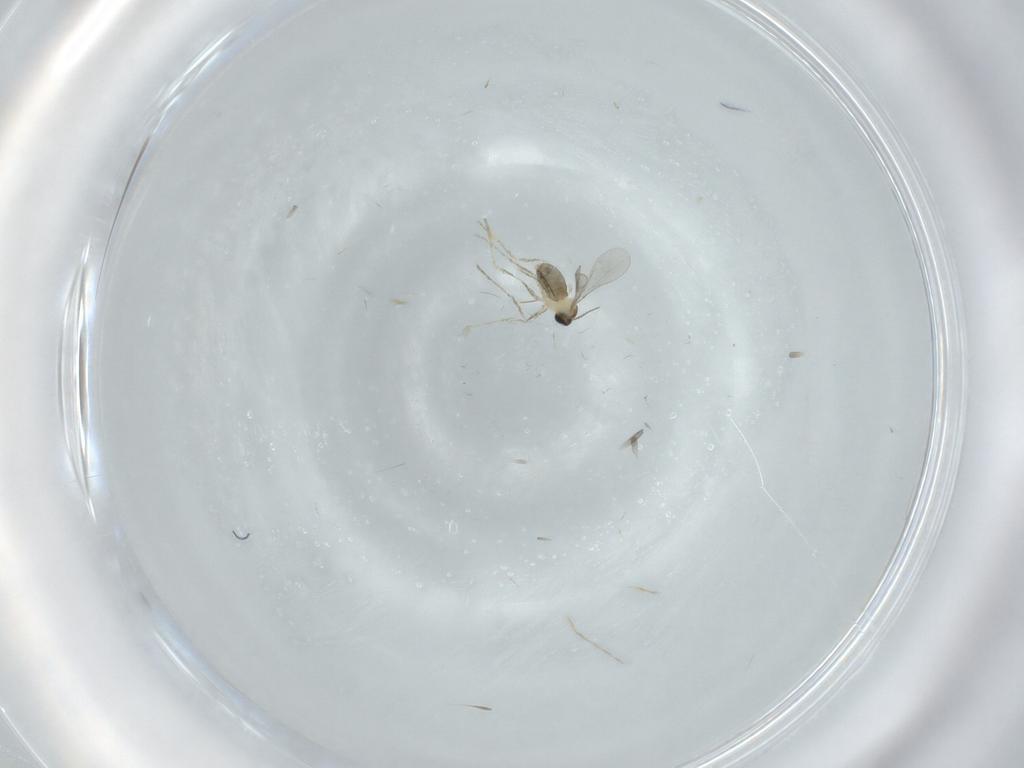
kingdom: Animalia
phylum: Arthropoda
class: Insecta
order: Diptera
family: Cecidomyiidae
